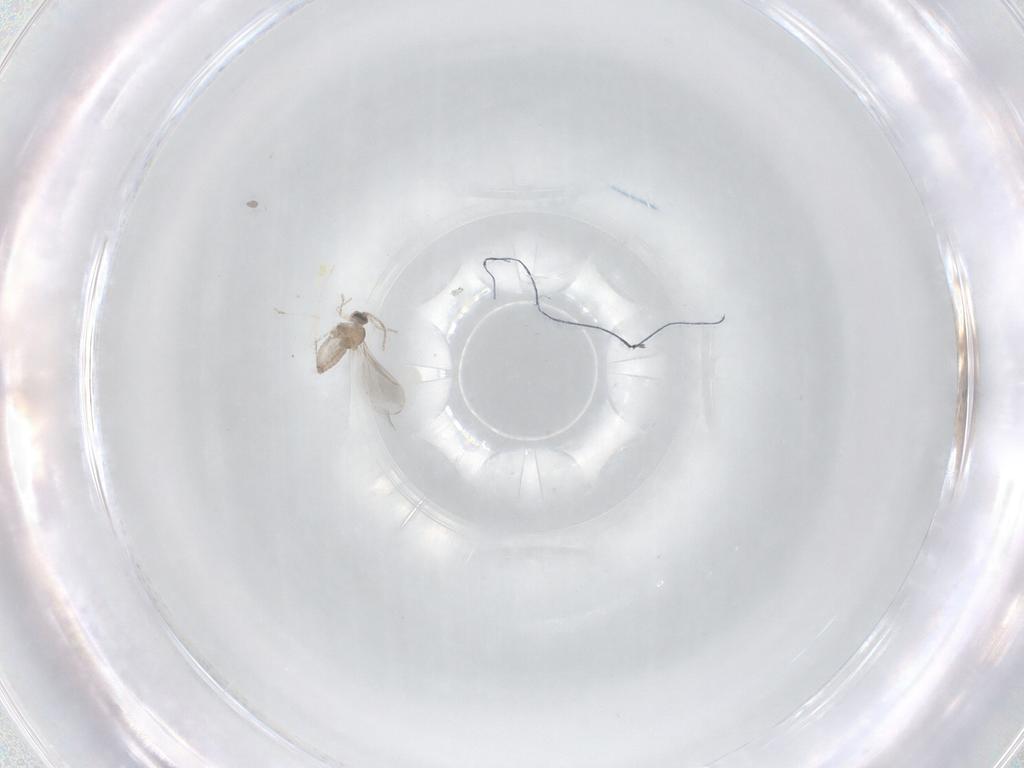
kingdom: Animalia
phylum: Arthropoda
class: Insecta
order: Diptera
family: Cecidomyiidae
